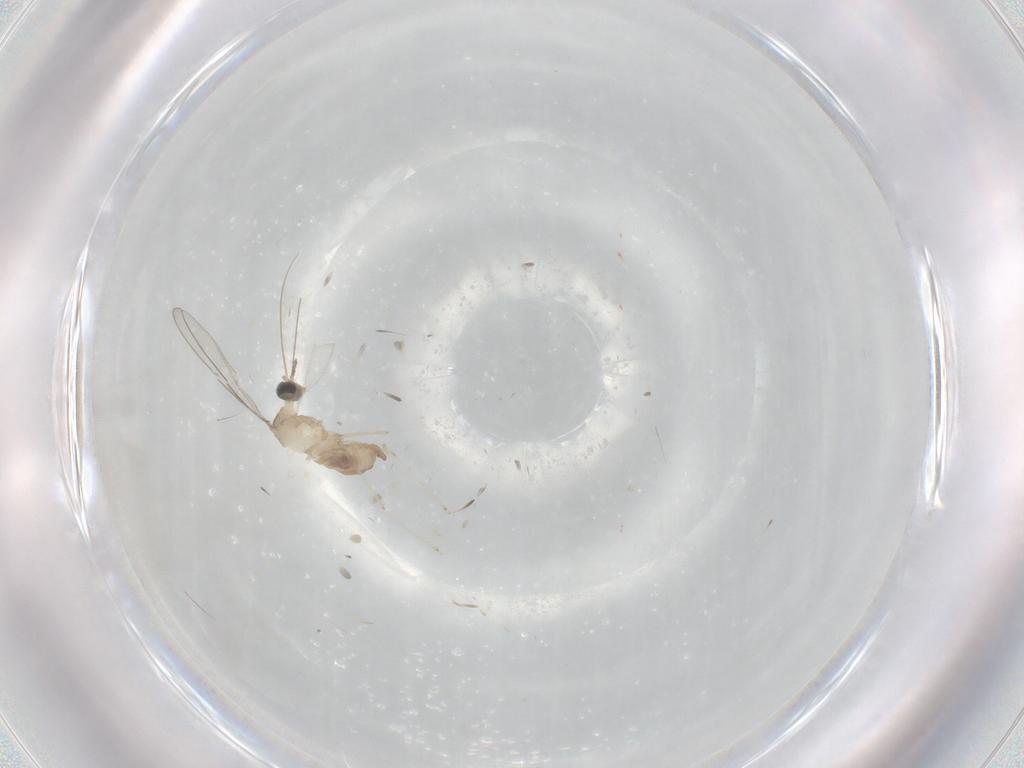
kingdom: Animalia
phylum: Arthropoda
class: Insecta
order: Diptera
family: Cecidomyiidae
